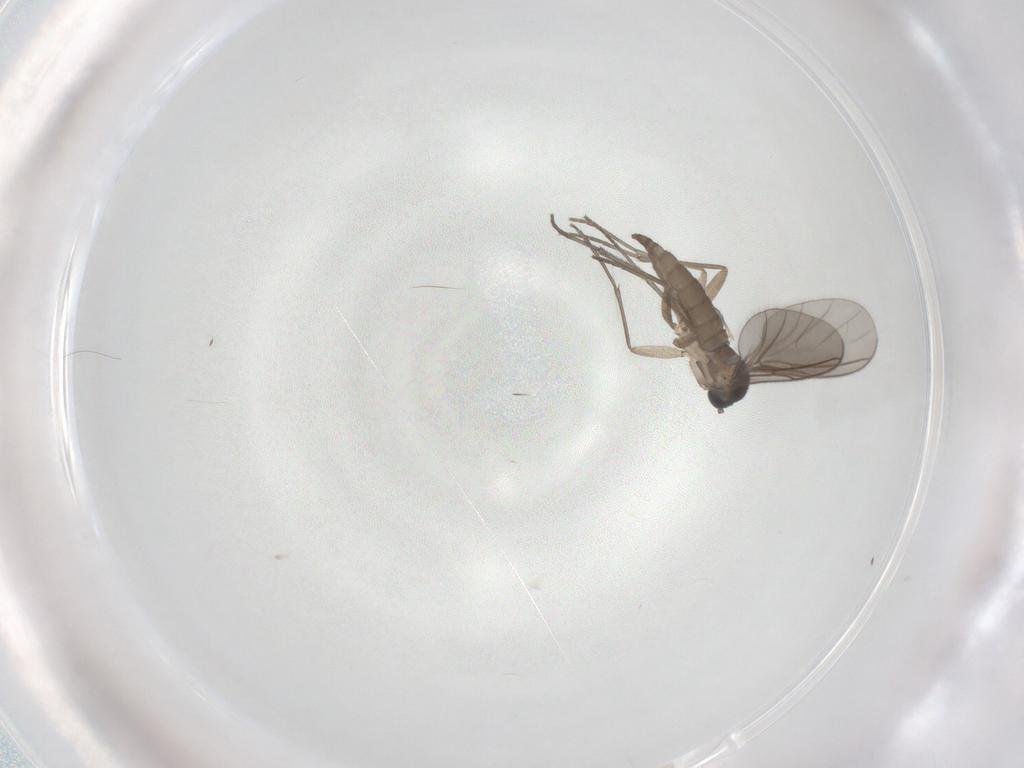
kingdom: Animalia
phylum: Arthropoda
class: Insecta
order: Diptera
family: Sciaridae
